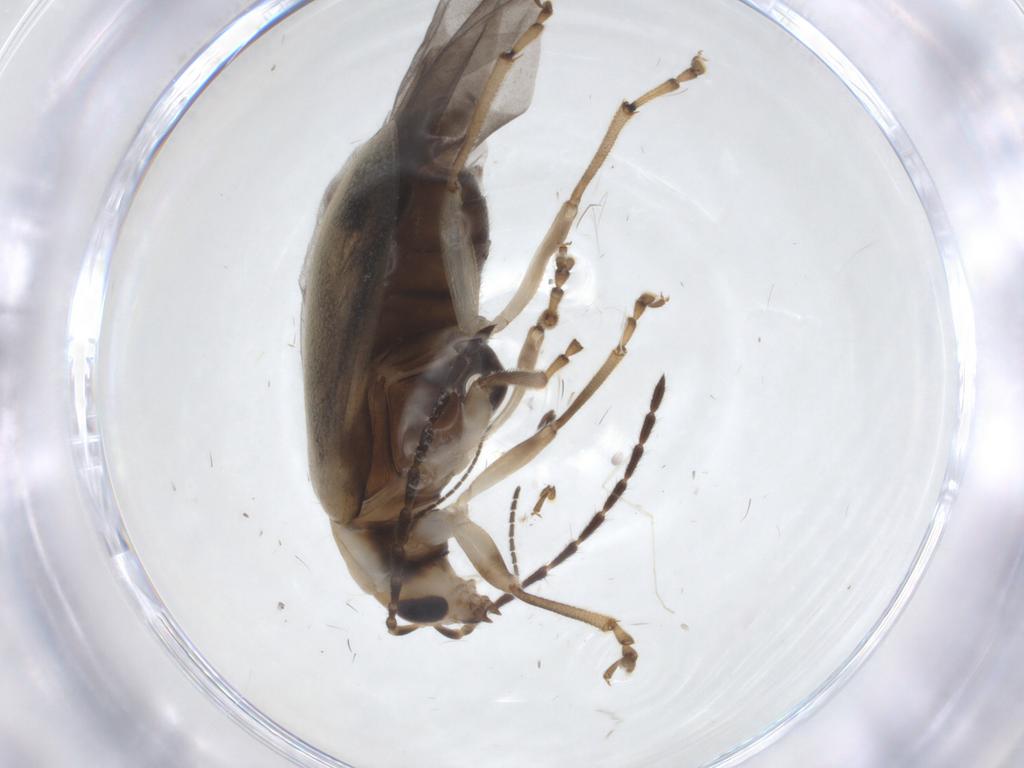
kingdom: Animalia
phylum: Arthropoda
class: Insecta
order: Coleoptera
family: Chrysomelidae
